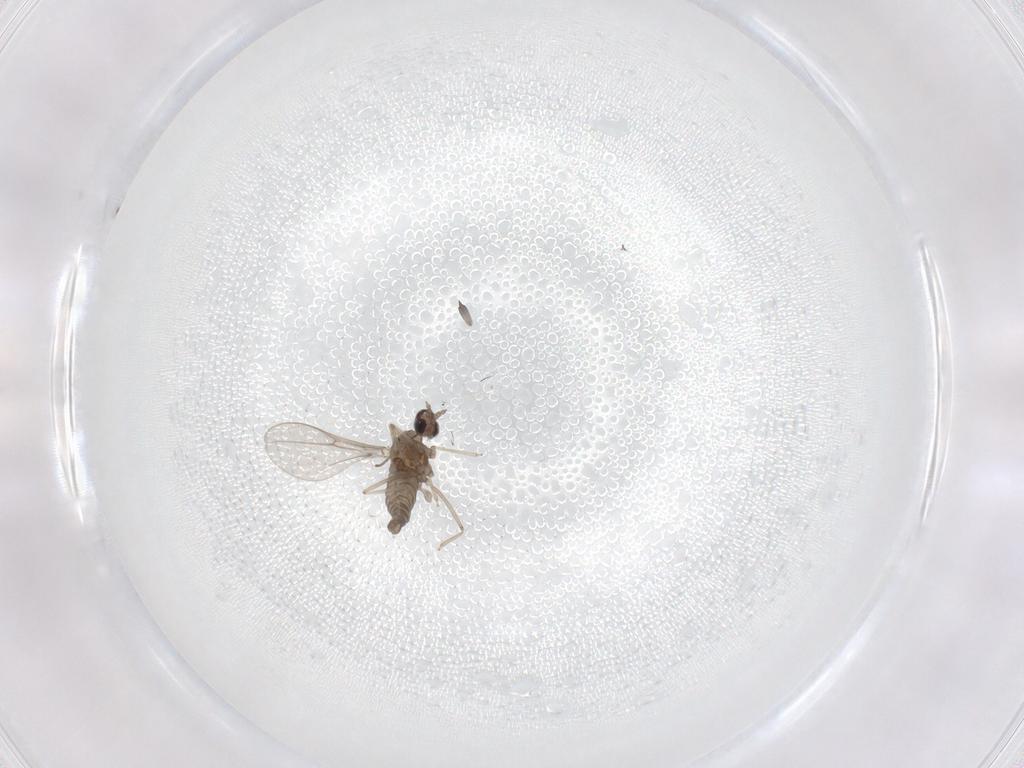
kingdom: Animalia
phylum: Arthropoda
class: Insecta
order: Diptera
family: Cecidomyiidae
